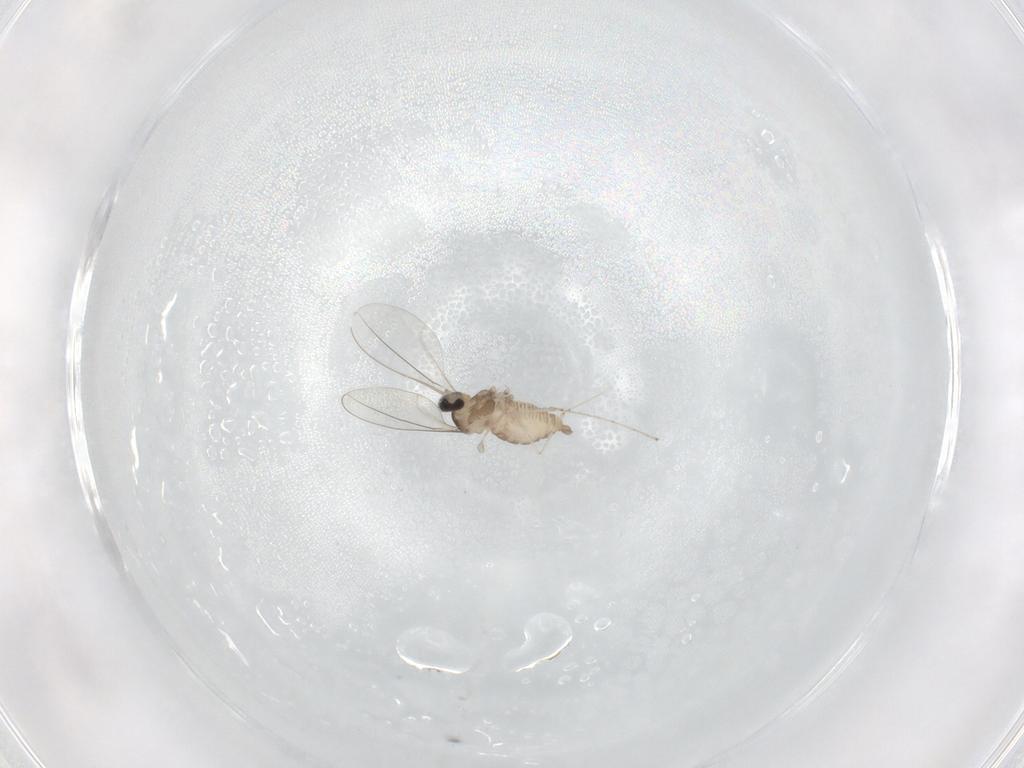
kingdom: Animalia
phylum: Arthropoda
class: Insecta
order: Diptera
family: Cecidomyiidae
